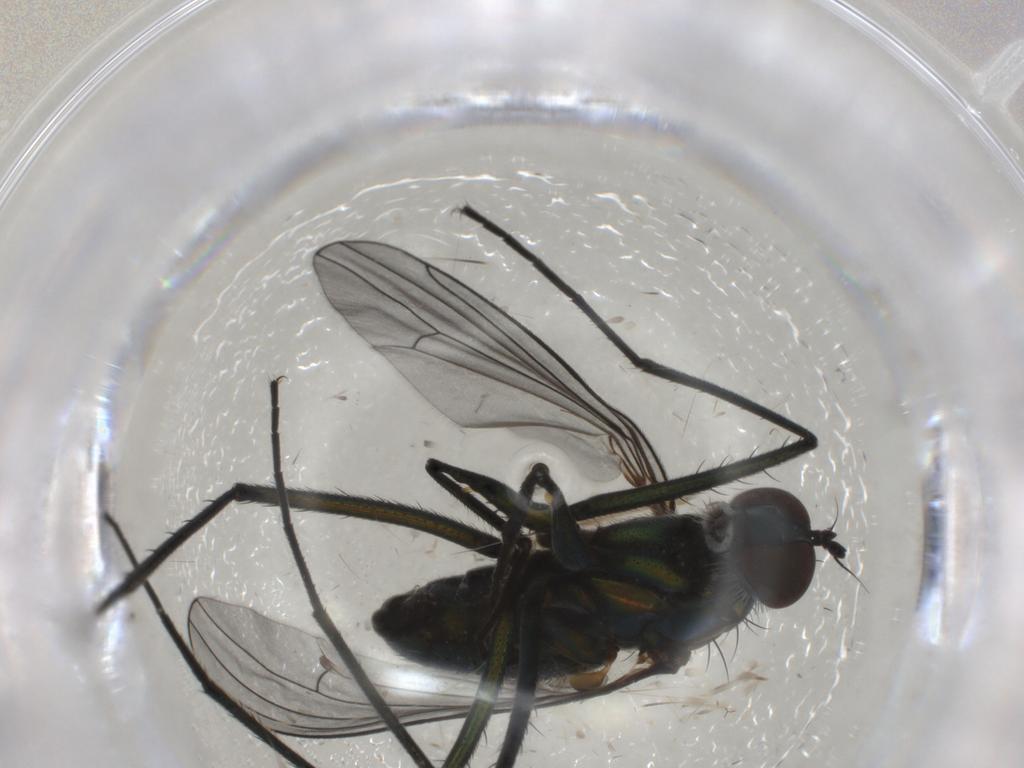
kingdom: Animalia
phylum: Arthropoda
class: Insecta
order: Diptera
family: Dolichopodidae
